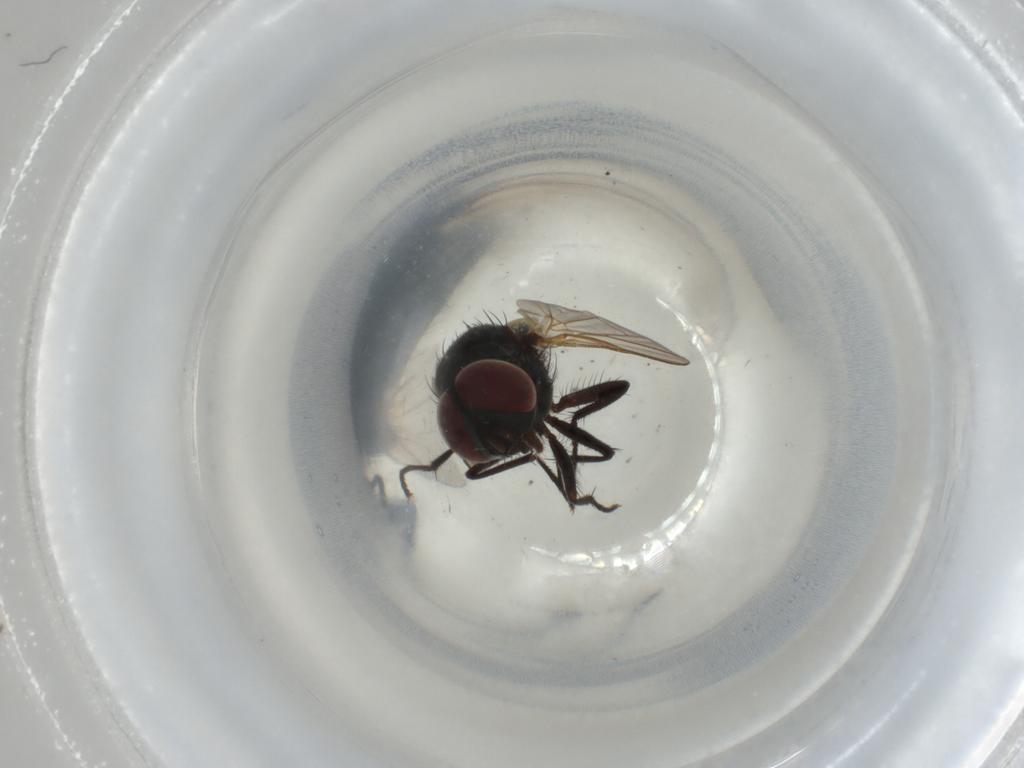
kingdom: Animalia
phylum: Arthropoda
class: Insecta
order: Diptera
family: Muscidae
